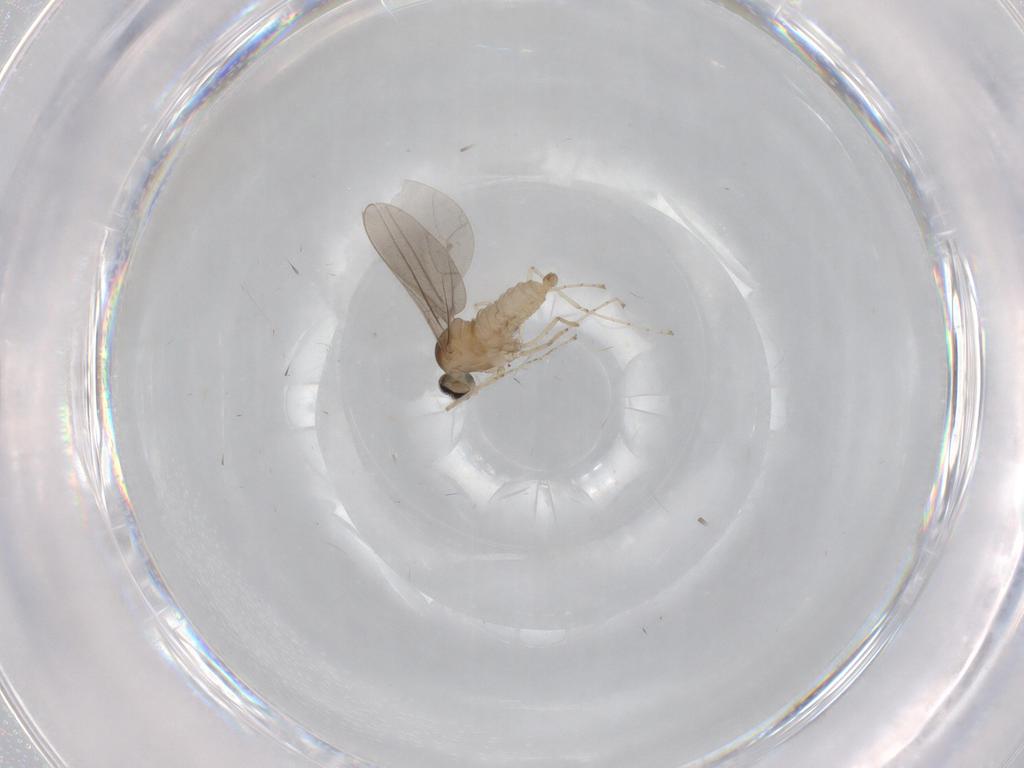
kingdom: Animalia
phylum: Arthropoda
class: Insecta
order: Diptera
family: Cecidomyiidae
